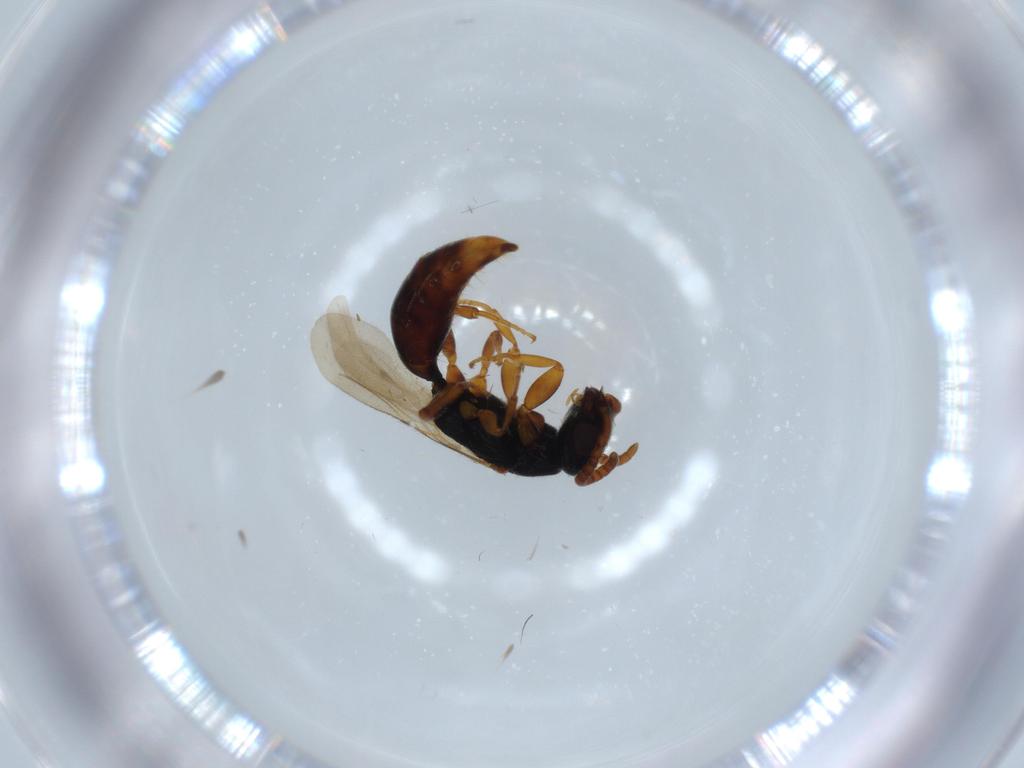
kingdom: Animalia
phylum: Arthropoda
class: Insecta
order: Hymenoptera
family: Bethylidae
